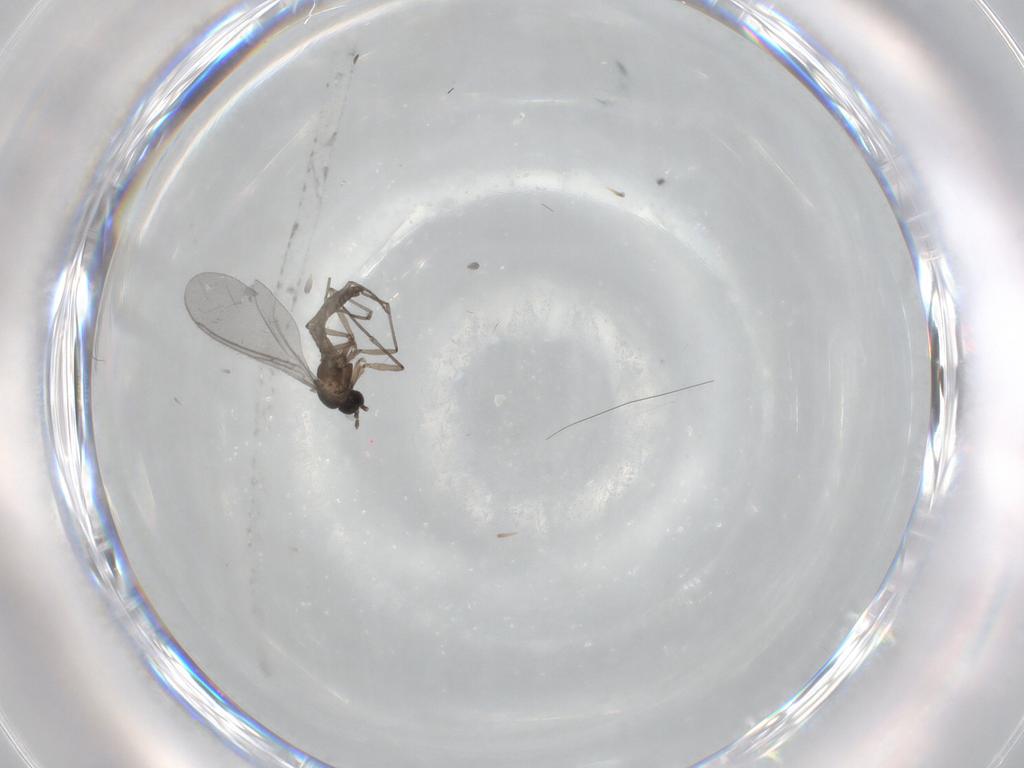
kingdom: Animalia
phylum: Arthropoda
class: Insecta
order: Diptera
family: Sciaridae
